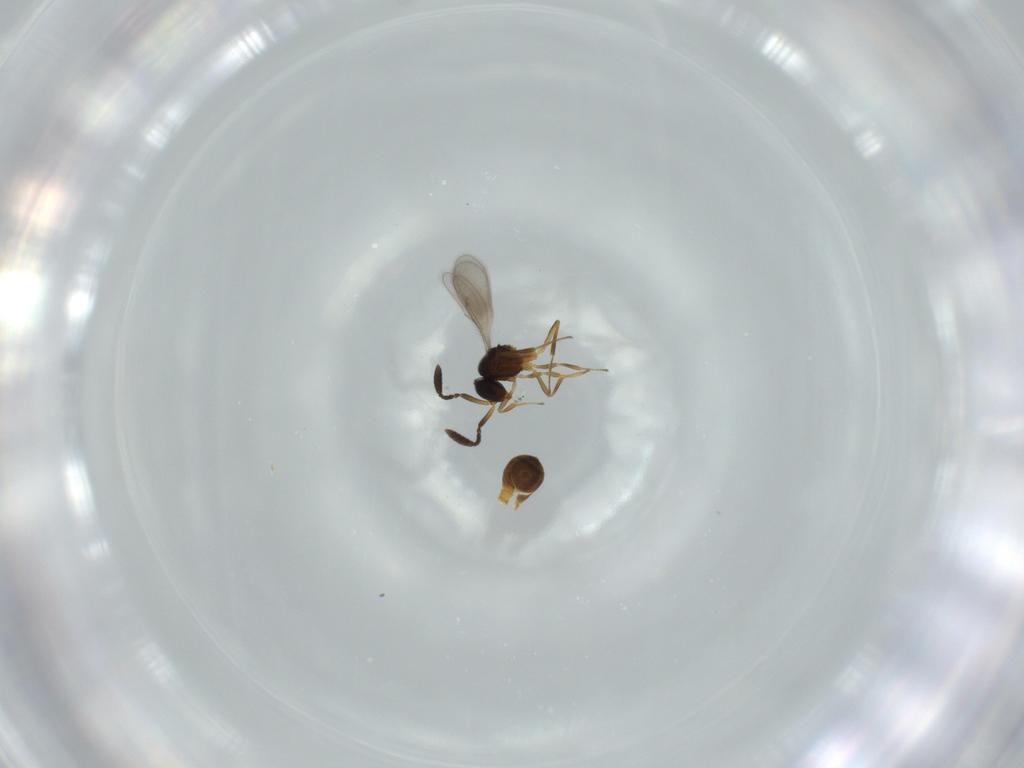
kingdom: Animalia
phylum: Arthropoda
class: Insecta
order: Hymenoptera
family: Scelionidae
